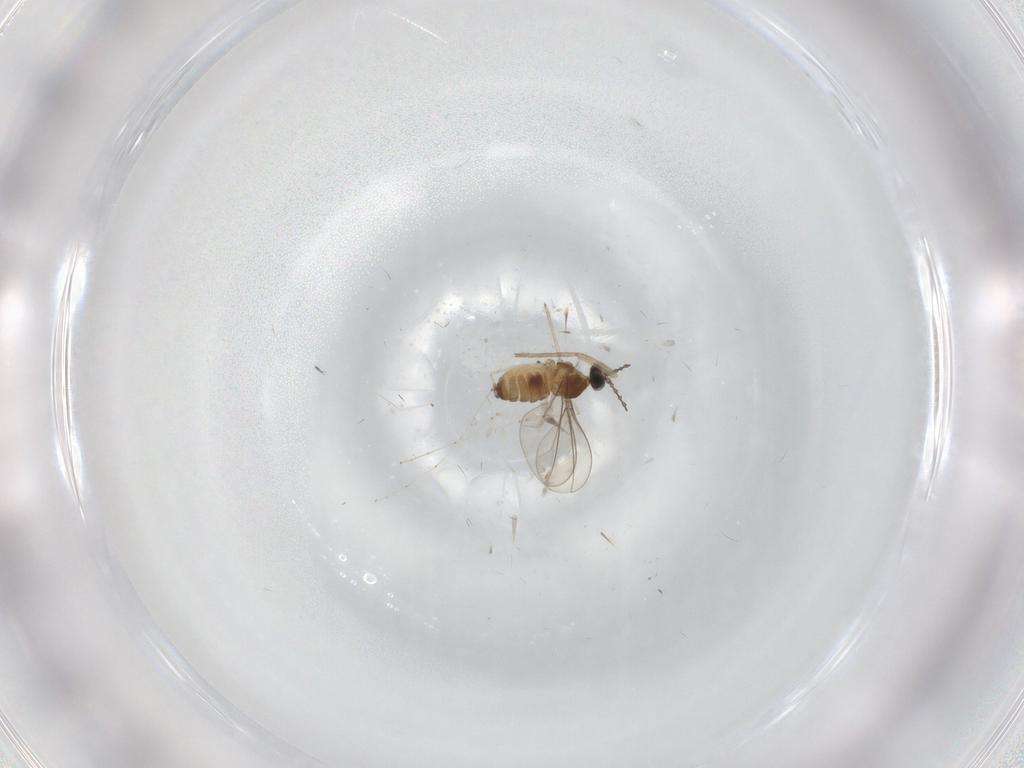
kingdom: Animalia
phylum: Arthropoda
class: Insecta
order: Diptera
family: Cecidomyiidae
